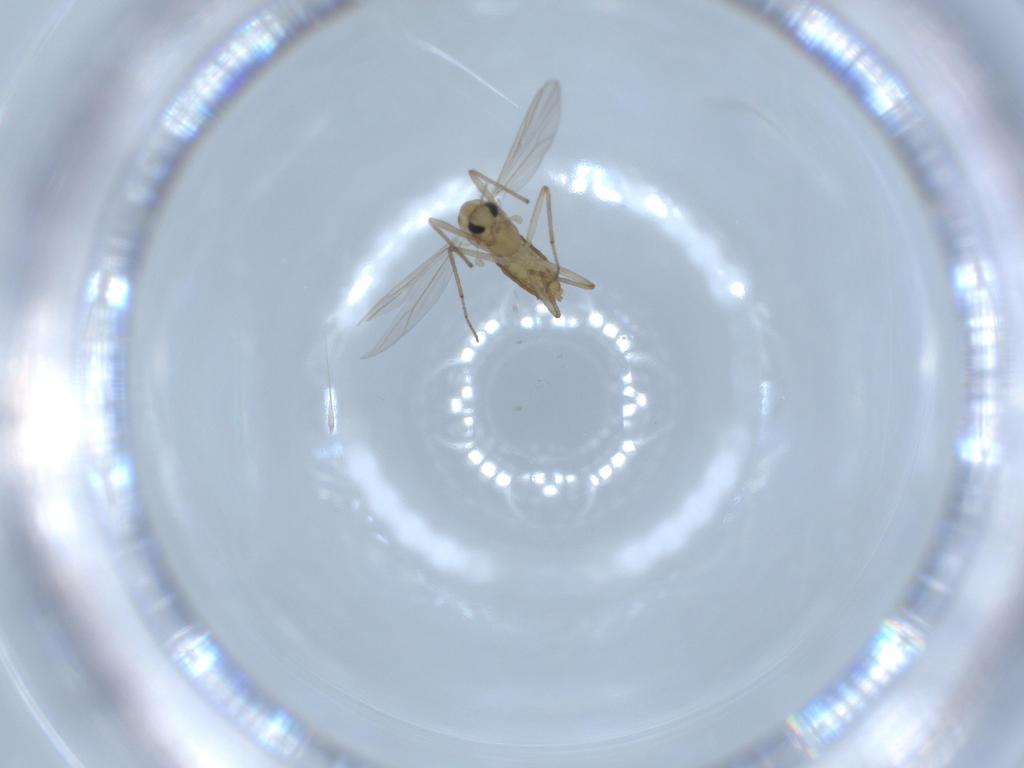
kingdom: Animalia
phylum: Arthropoda
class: Insecta
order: Diptera
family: Chironomidae
